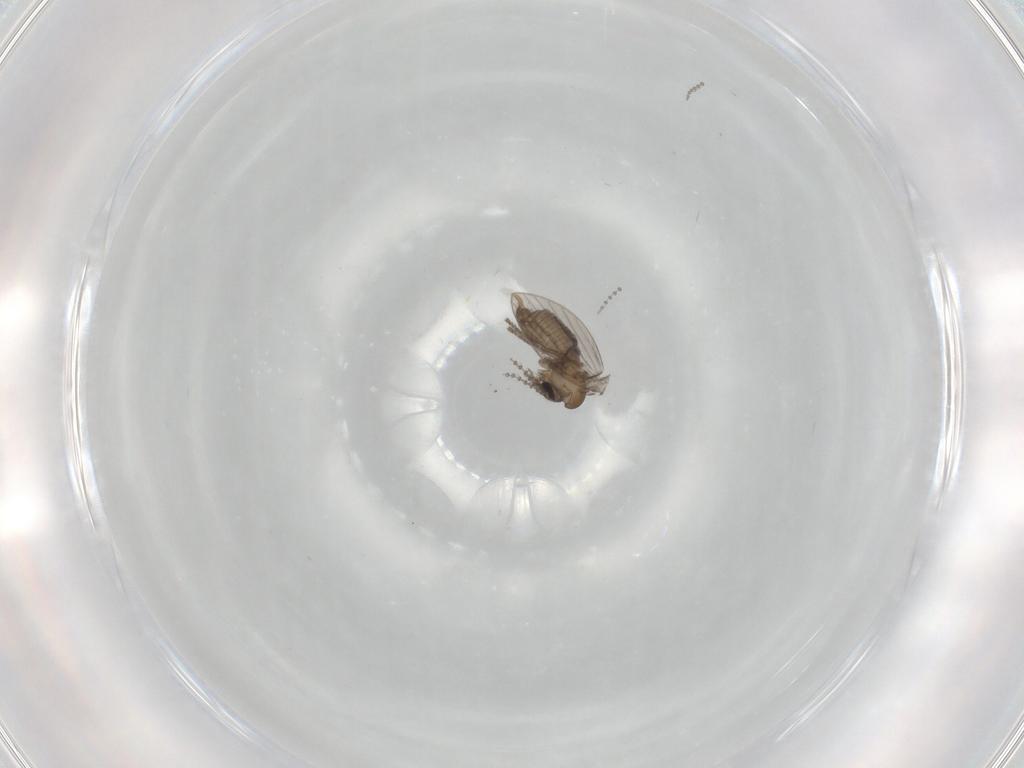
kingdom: Animalia
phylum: Arthropoda
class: Insecta
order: Diptera
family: Psychodidae
